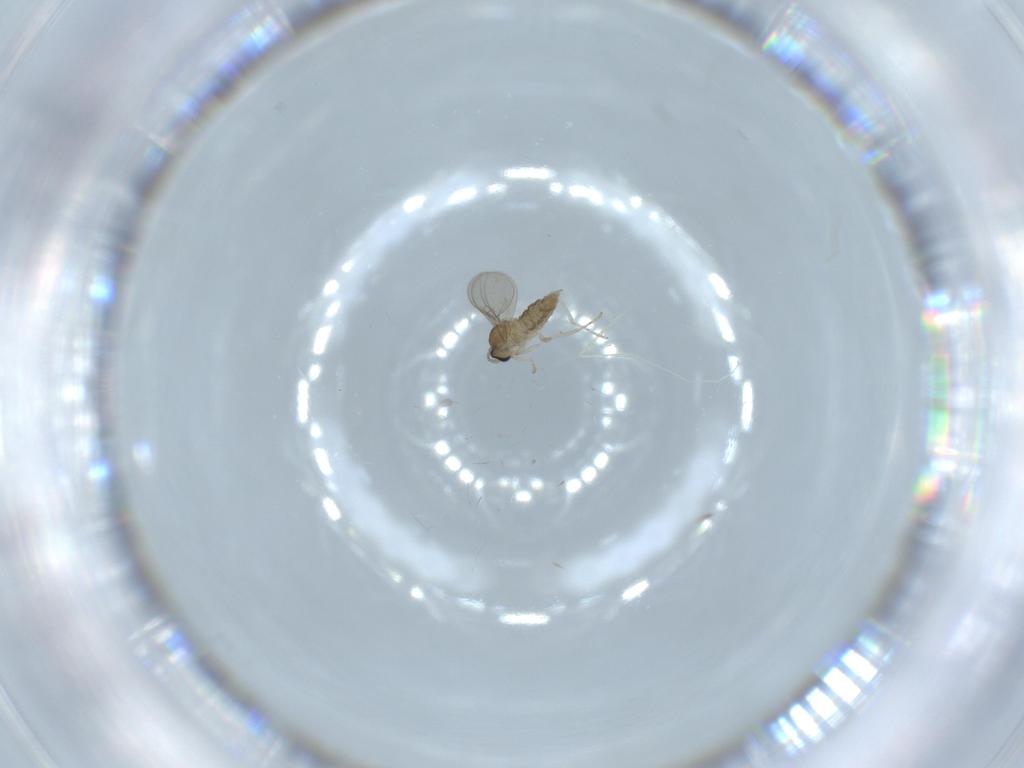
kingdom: Animalia
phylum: Arthropoda
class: Insecta
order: Diptera
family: Cecidomyiidae
